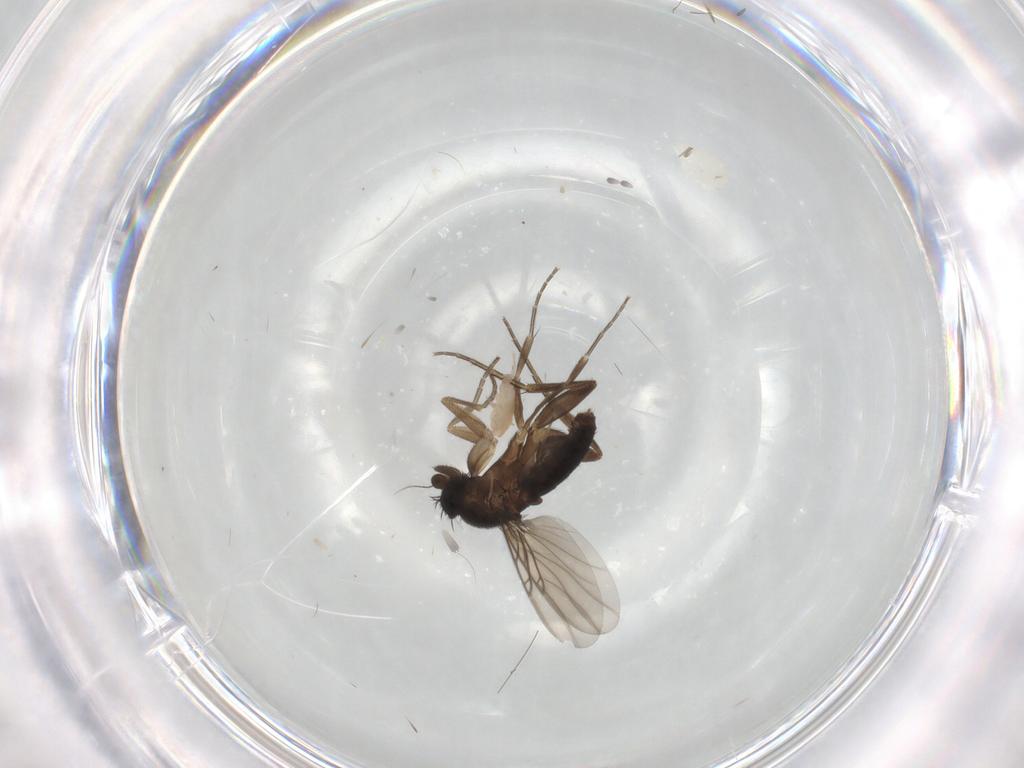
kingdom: Animalia
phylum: Arthropoda
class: Insecta
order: Diptera
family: Phoridae
